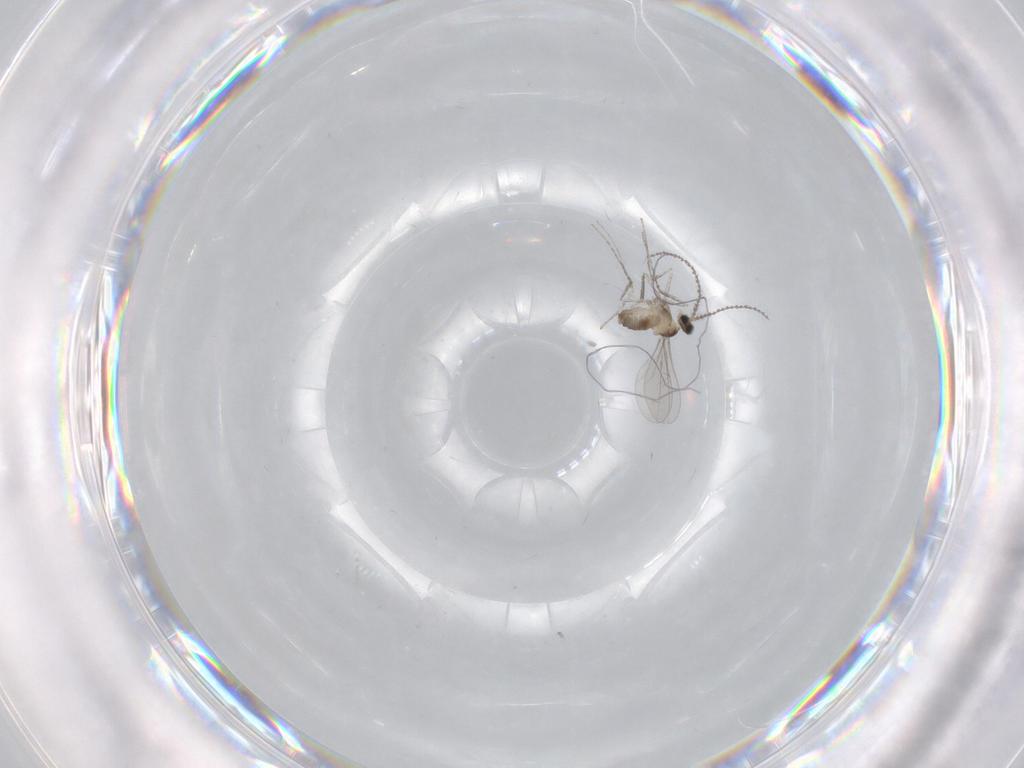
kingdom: Animalia
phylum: Arthropoda
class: Insecta
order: Diptera
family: Cecidomyiidae
